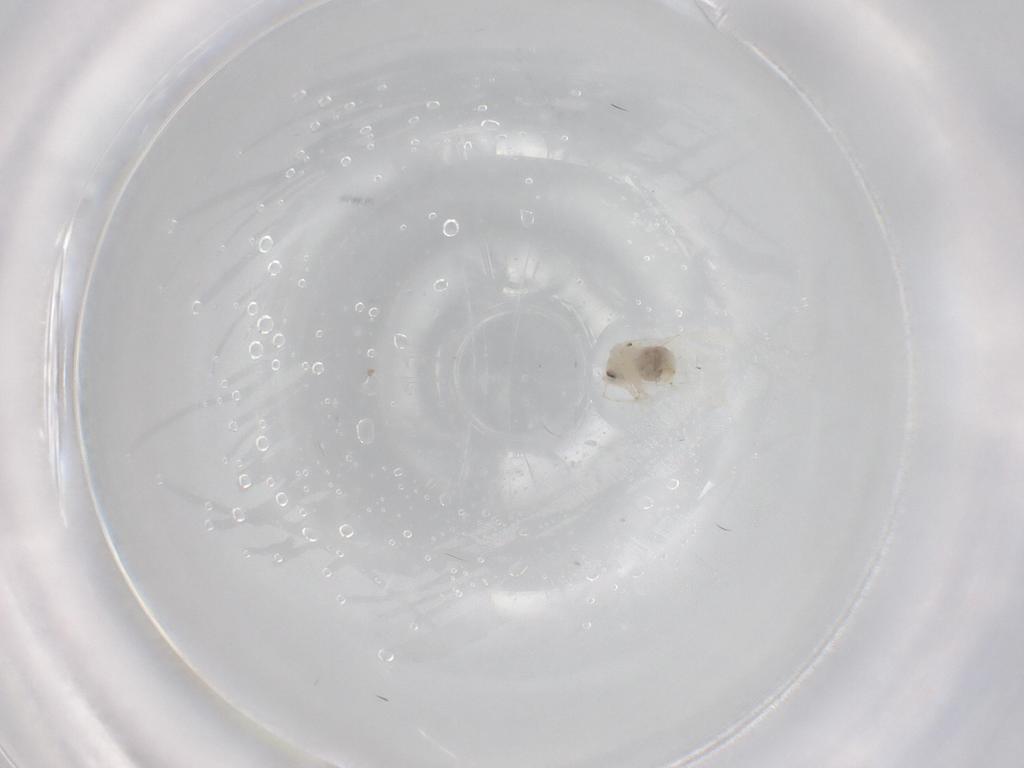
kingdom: Animalia
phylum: Arthropoda
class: Insecta
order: Hemiptera
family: Aleyrodidae
